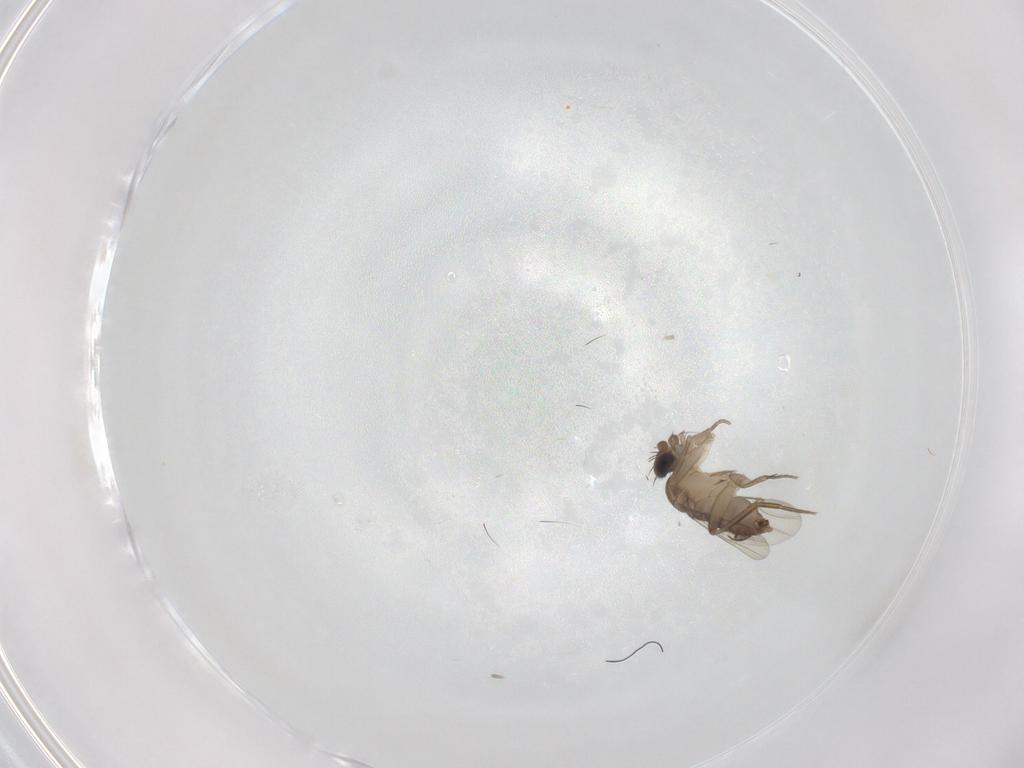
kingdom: Animalia
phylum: Arthropoda
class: Insecta
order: Diptera
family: Phoridae
